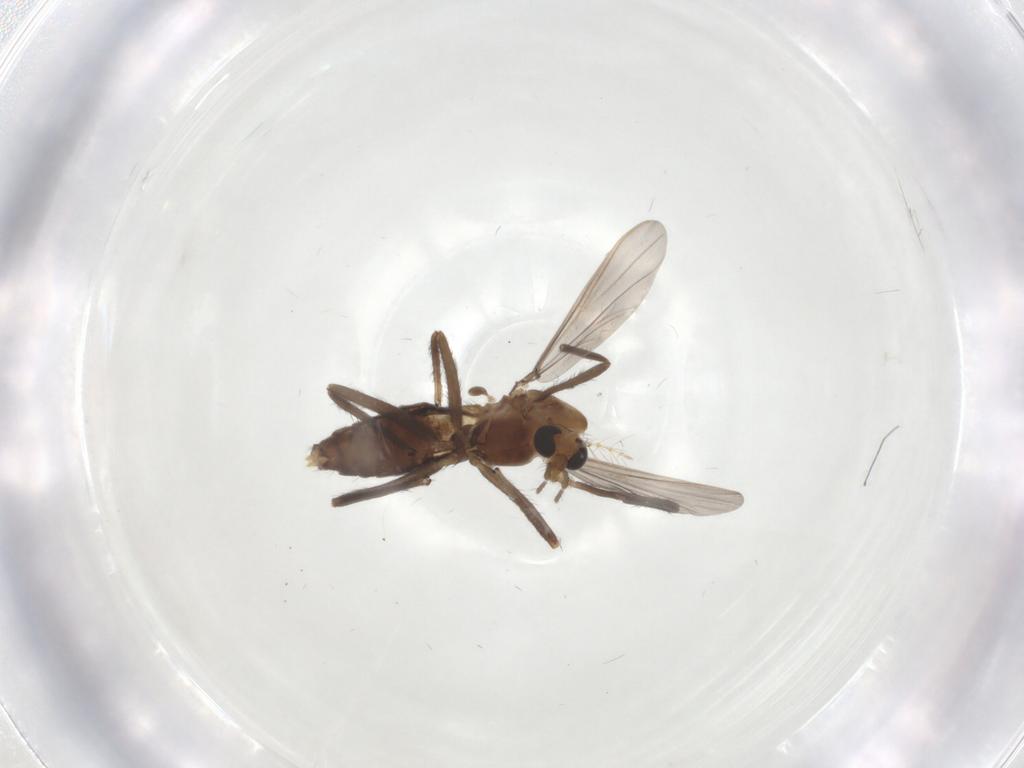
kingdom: Animalia
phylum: Arthropoda
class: Insecta
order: Diptera
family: Chironomidae
